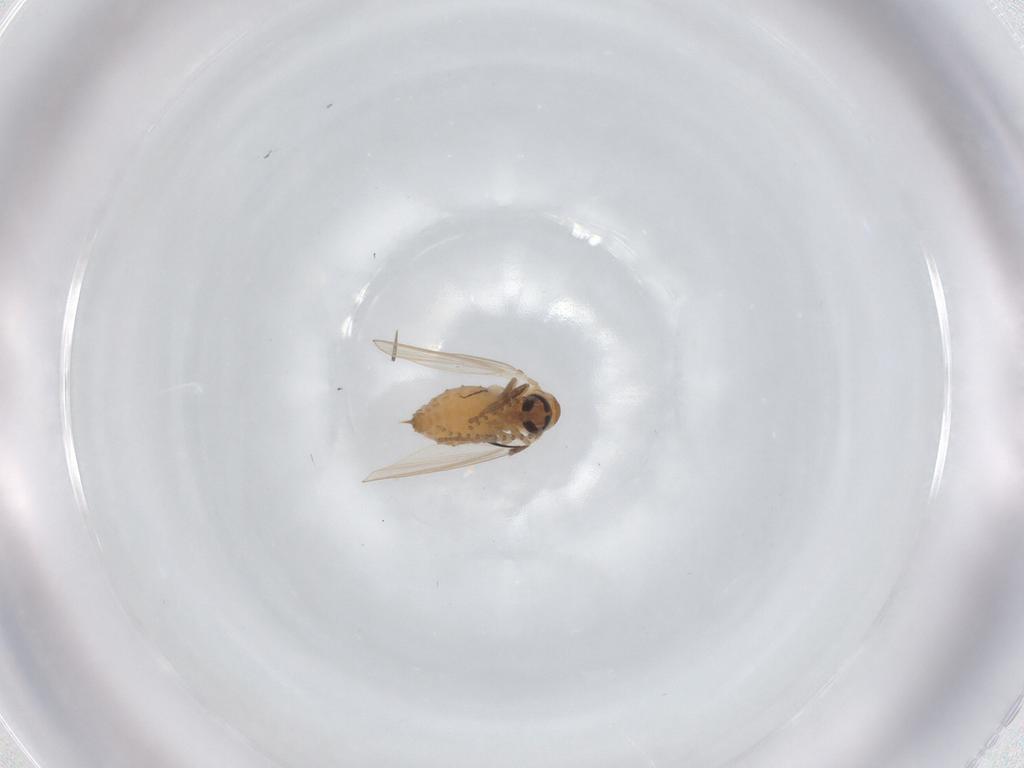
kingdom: Animalia
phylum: Arthropoda
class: Insecta
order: Diptera
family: Psychodidae
